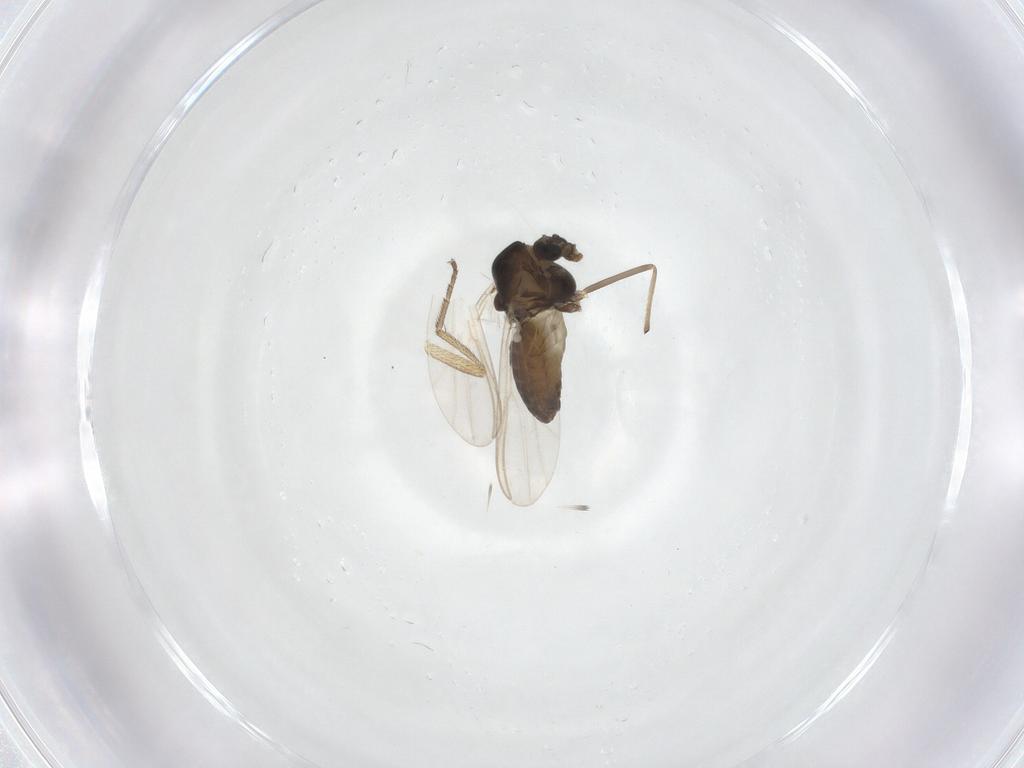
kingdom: Animalia
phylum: Arthropoda
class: Insecta
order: Diptera
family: Chironomidae
